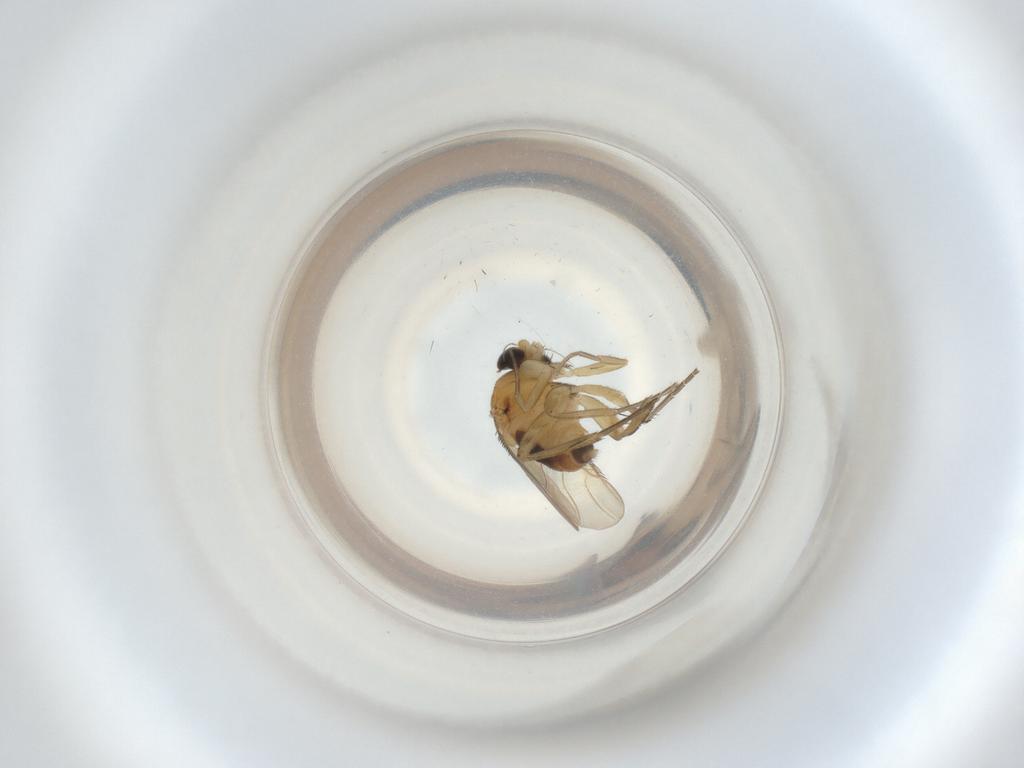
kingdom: Animalia
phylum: Arthropoda
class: Insecta
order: Diptera
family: Phoridae
